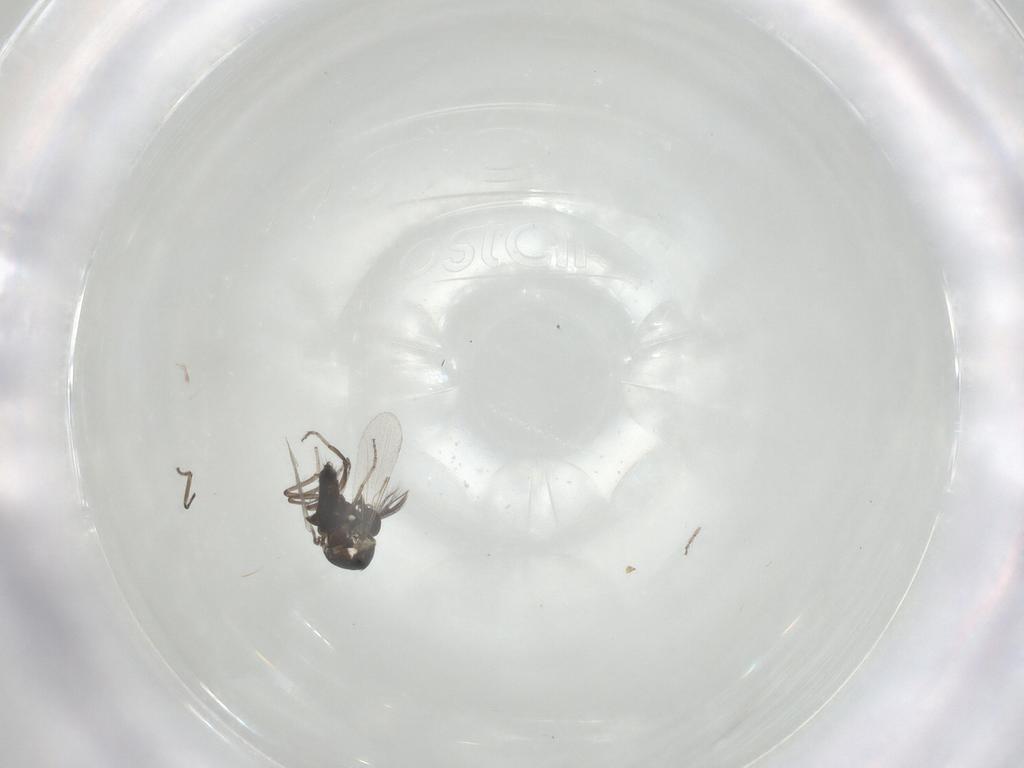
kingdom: Animalia
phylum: Arthropoda
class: Insecta
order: Diptera
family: Ceratopogonidae
